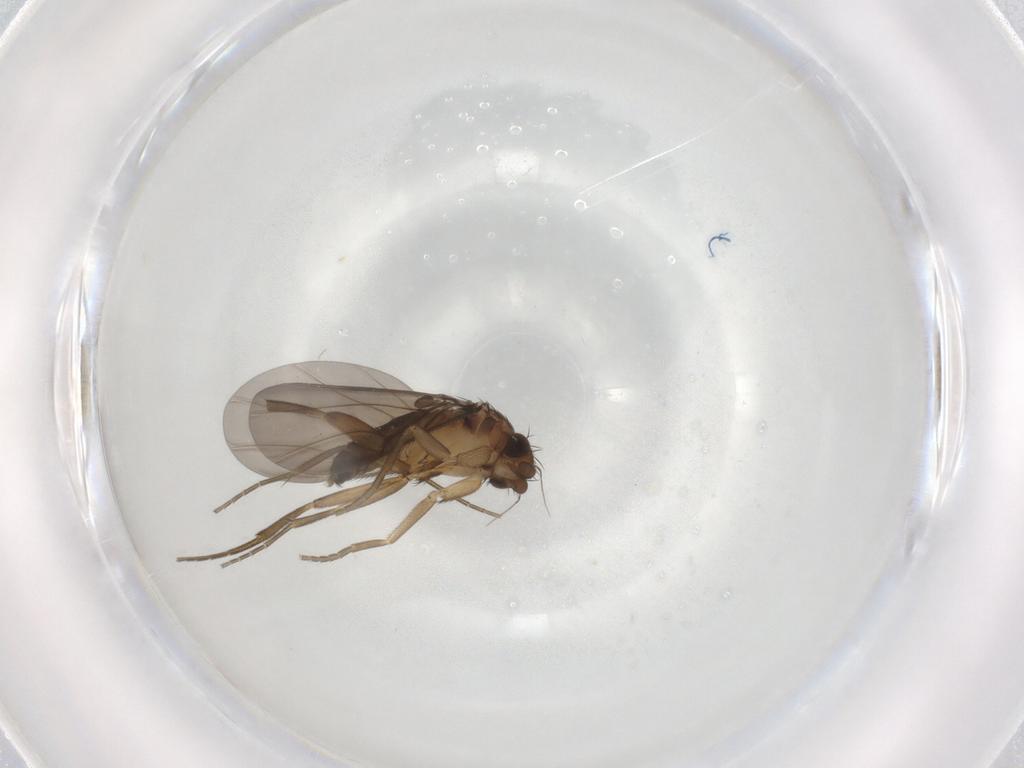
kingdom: Animalia
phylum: Arthropoda
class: Insecta
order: Diptera
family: Phoridae
